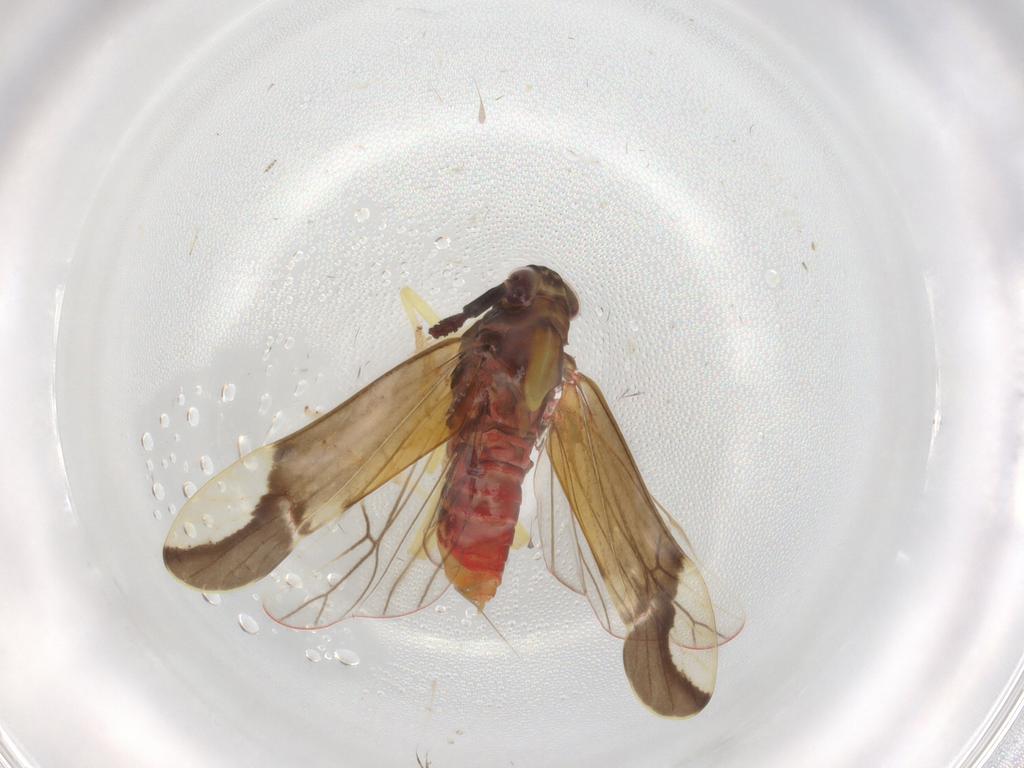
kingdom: Animalia
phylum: Arthropoda
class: Insecta
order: Hemiptera
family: Delphacidae
